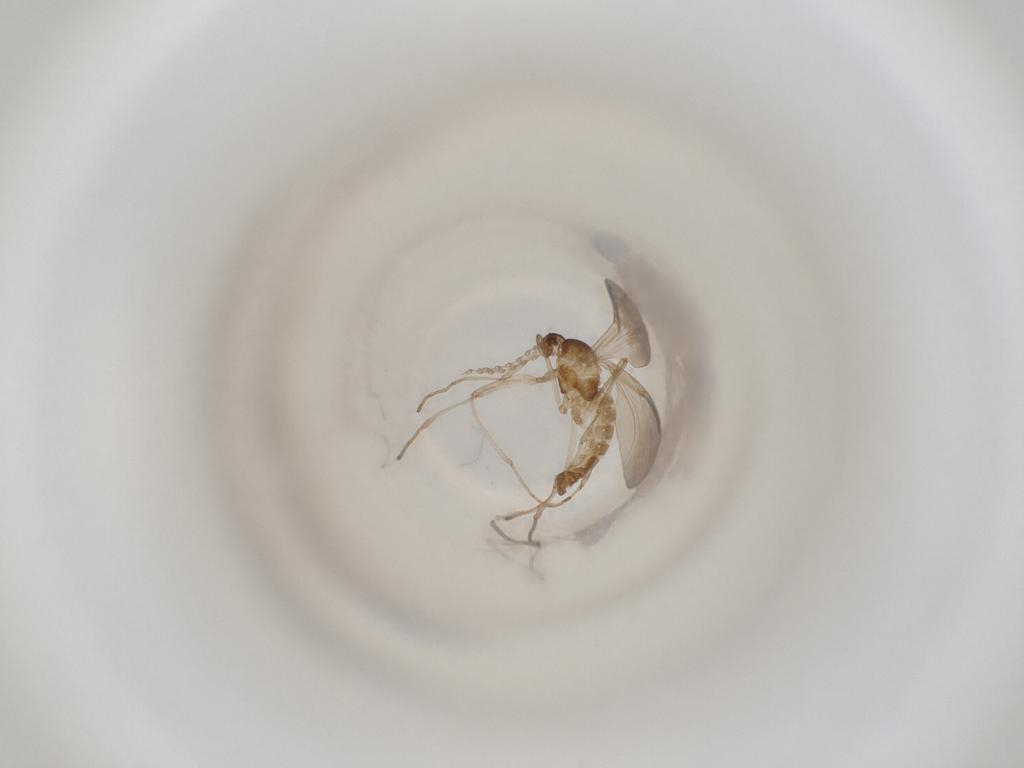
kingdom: Animalia
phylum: Arthropoda
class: Insecta
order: Diptera
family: Cecidomyiidae
